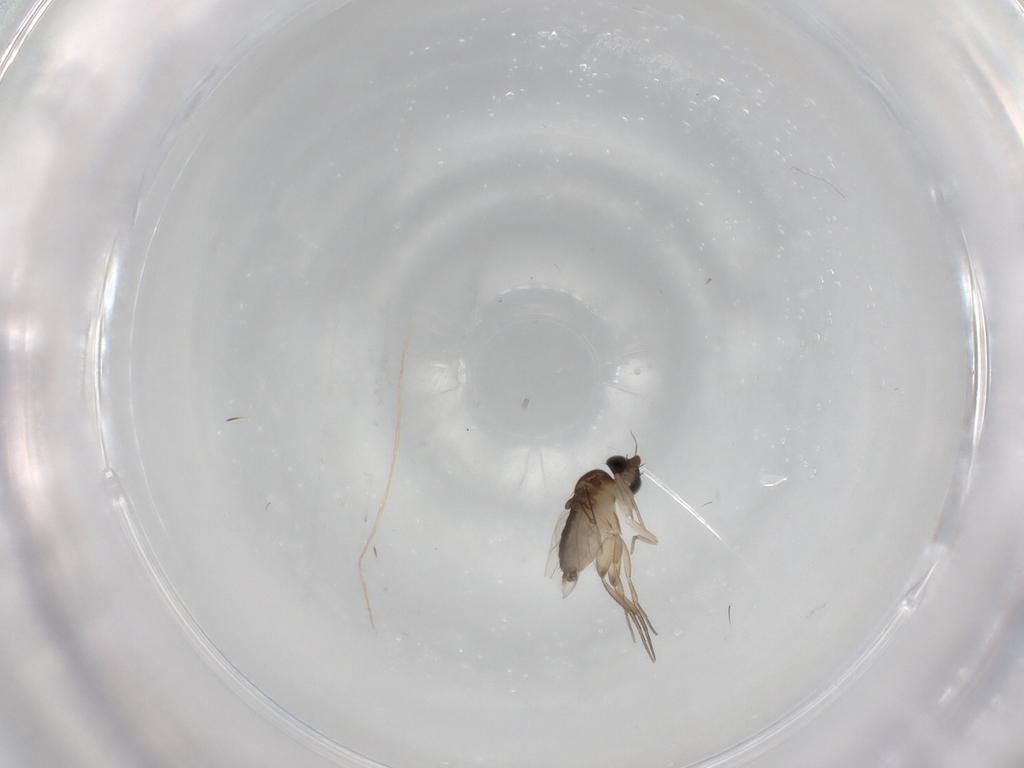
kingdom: Animalia
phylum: Arthropoda
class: Insecta
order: Diptera
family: Phoridae
